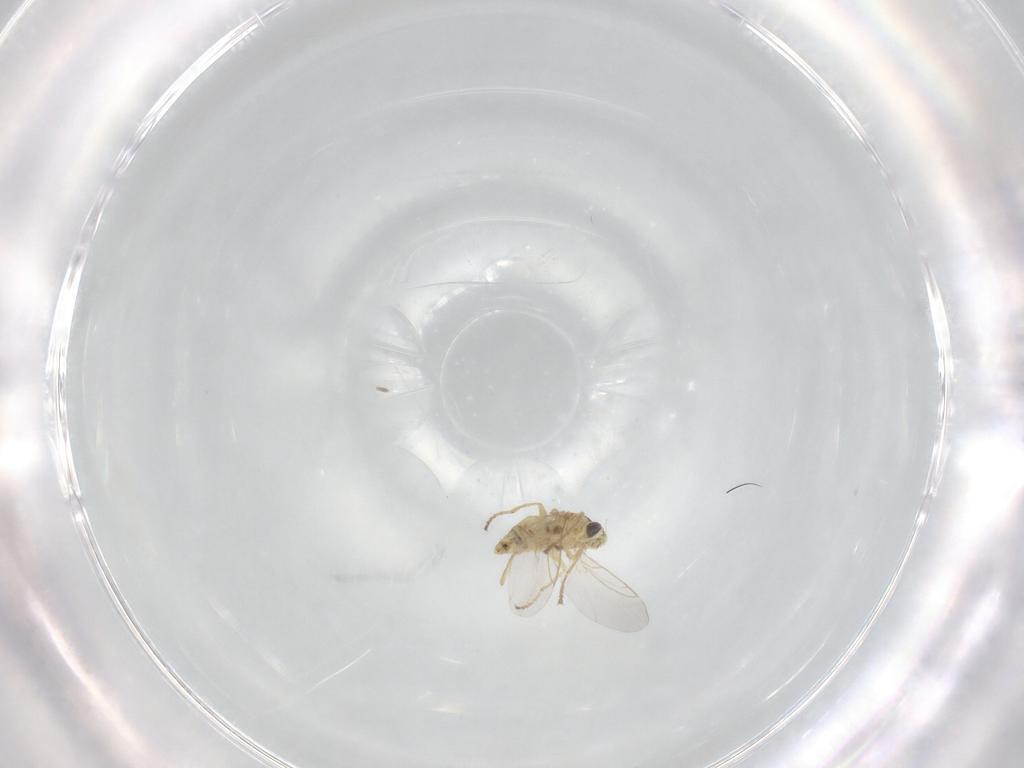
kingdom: Animalia
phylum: Arthropoda
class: Insecta
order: Diptera
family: Agromyzidae
